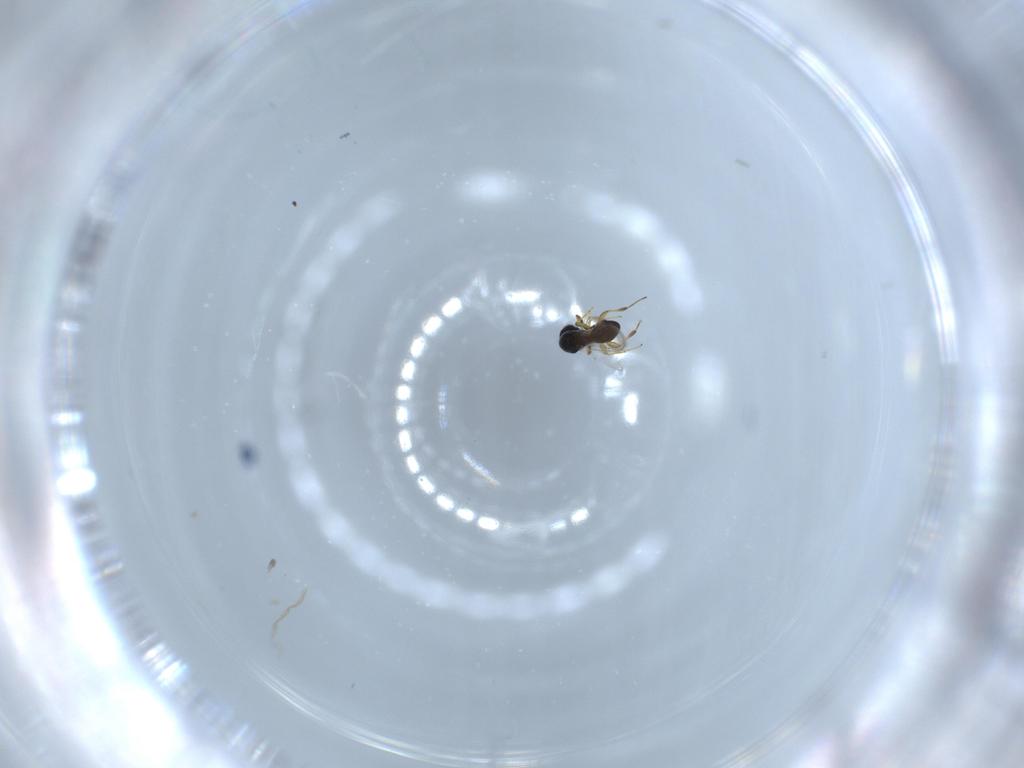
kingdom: Animalia
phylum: Arthropoda
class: Insecta
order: Hymenoptera
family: Platygastridae
